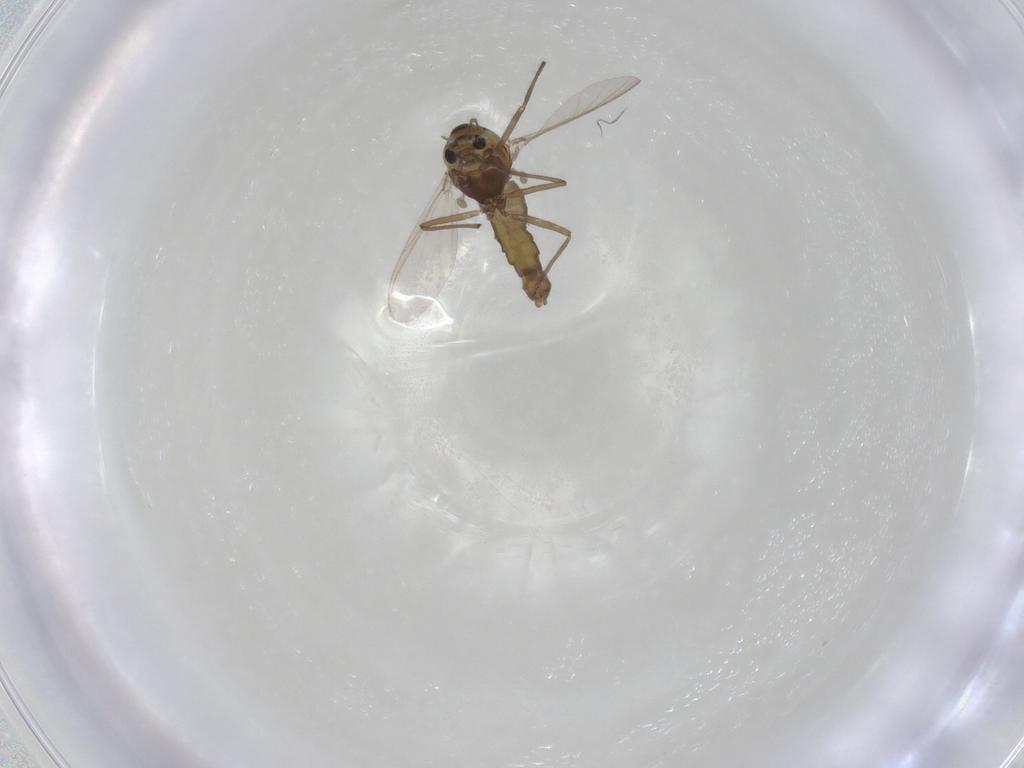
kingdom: Animalia
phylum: Arthropoda
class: Insecta
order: Diptera
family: Chironomidae
